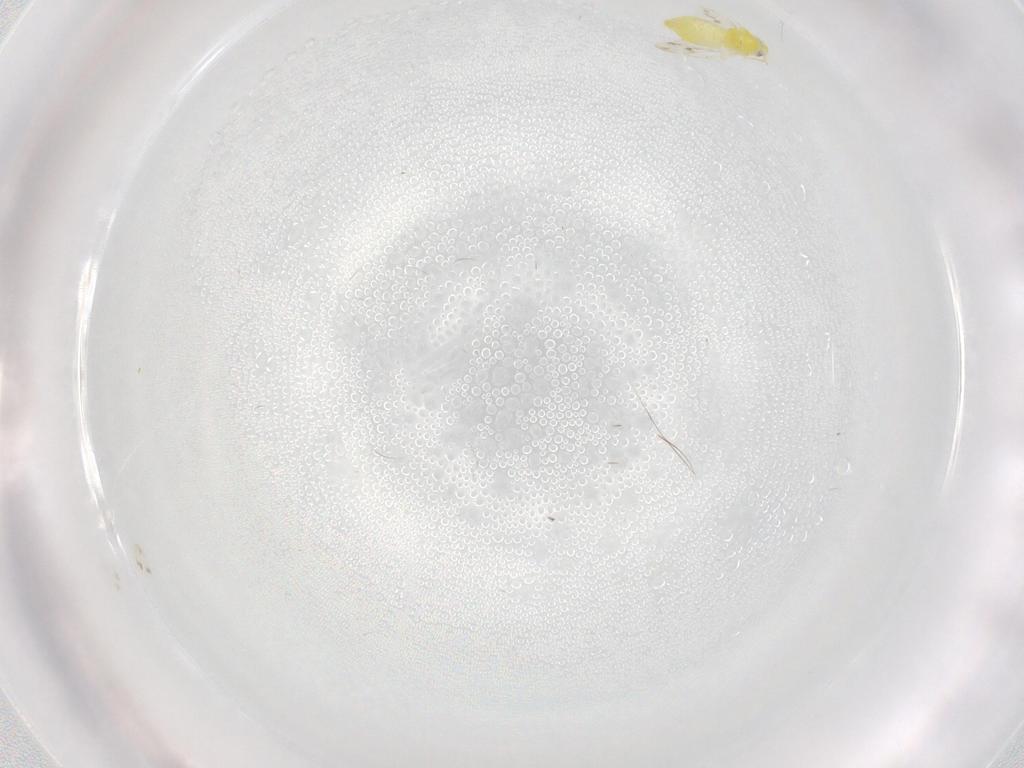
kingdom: Animalia
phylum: Arthropoda
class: Insecta
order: Hemiptera
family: Aleyrodidae
